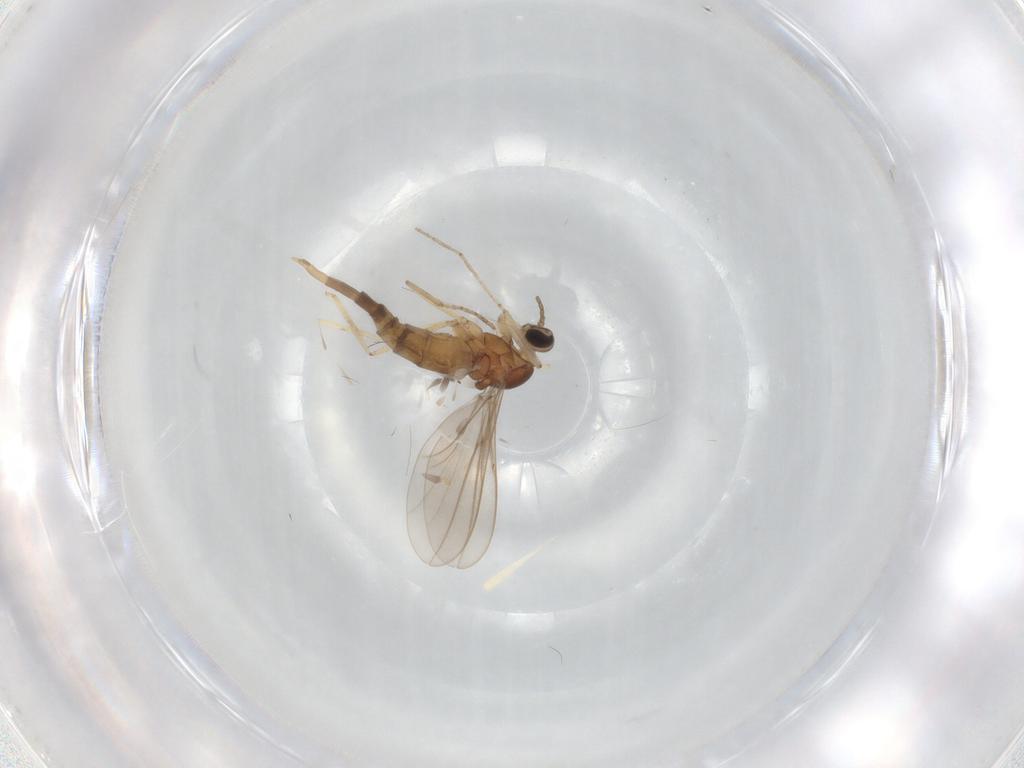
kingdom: Animalia
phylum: Arthropoda
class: Insecta
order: Diptera
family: Cecidomyiidae
